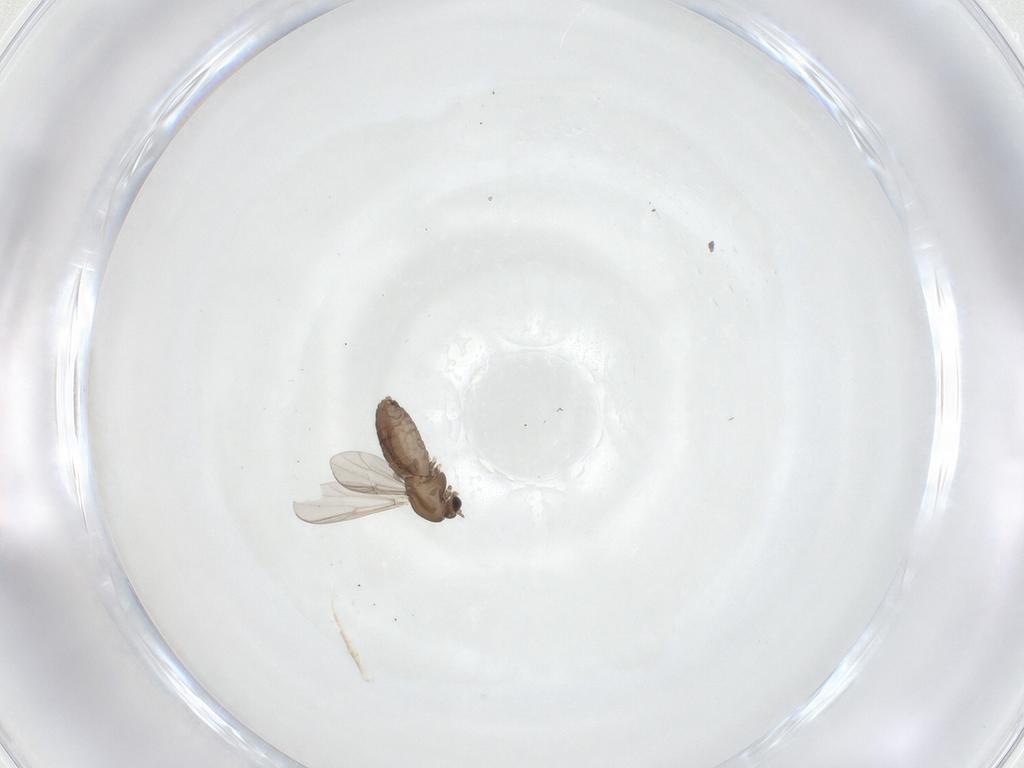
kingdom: Animalia
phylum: Arthropoda
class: Insecta
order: Diptera
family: Chironomidae
